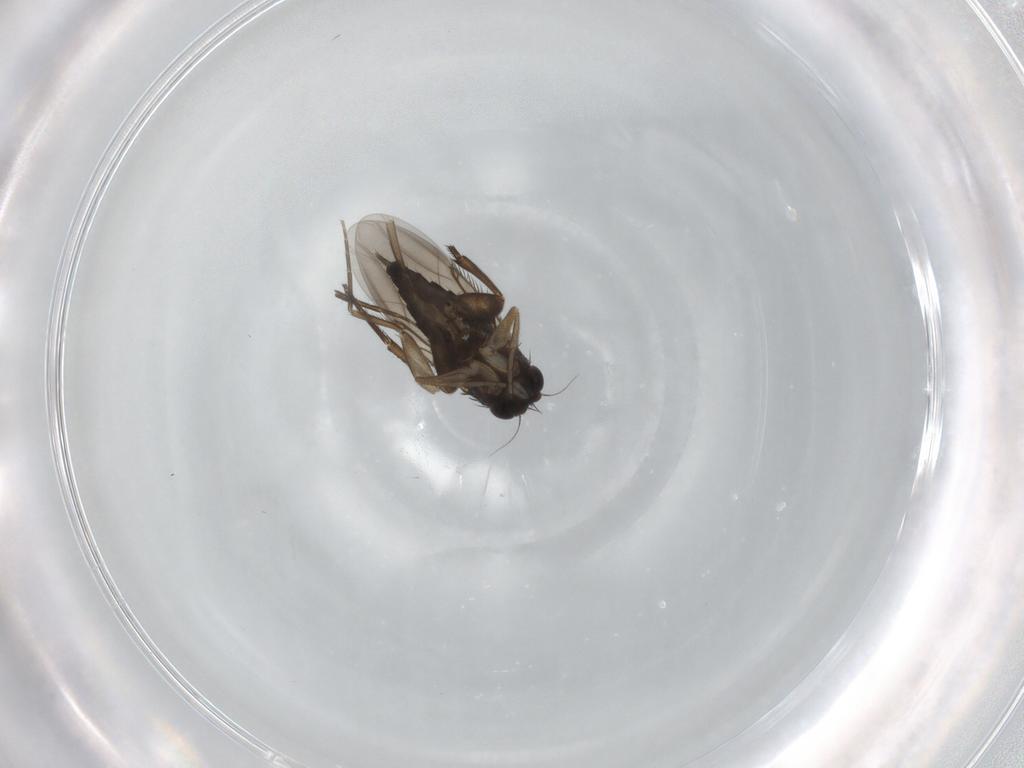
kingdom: Animalia
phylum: Arthropoda
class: Insecta
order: Diptera
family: Chironomidae
